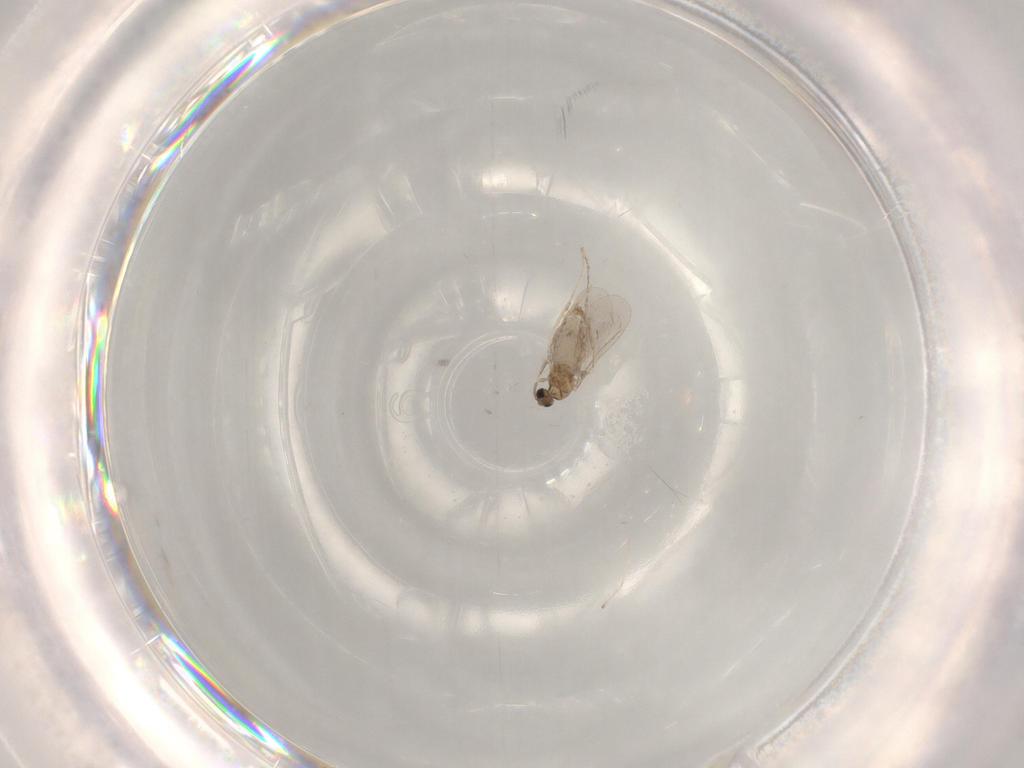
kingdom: Animalia
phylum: Arthropoda
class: Insecta
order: Diptera
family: Cecidomyiidae
